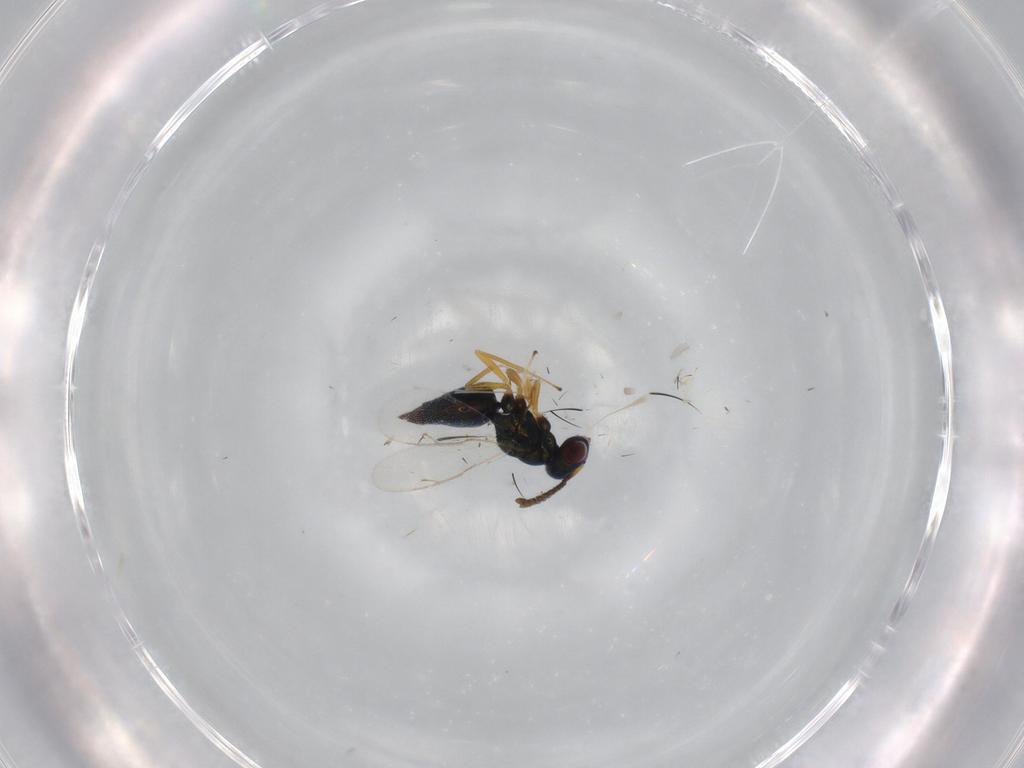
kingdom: Animalia
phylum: Arthropoda
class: Insecta
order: Hymenoptera
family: Halictidae
